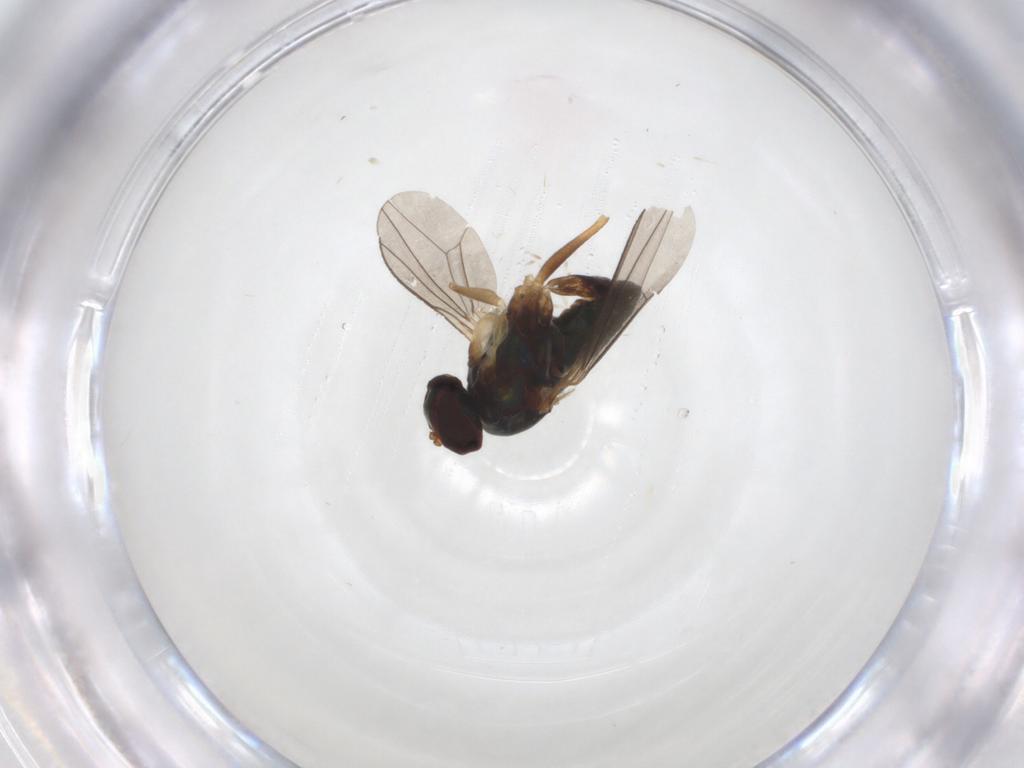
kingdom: Animalia
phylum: Arthropoda
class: Insecta
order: Diptera
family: Dolichopodidae
